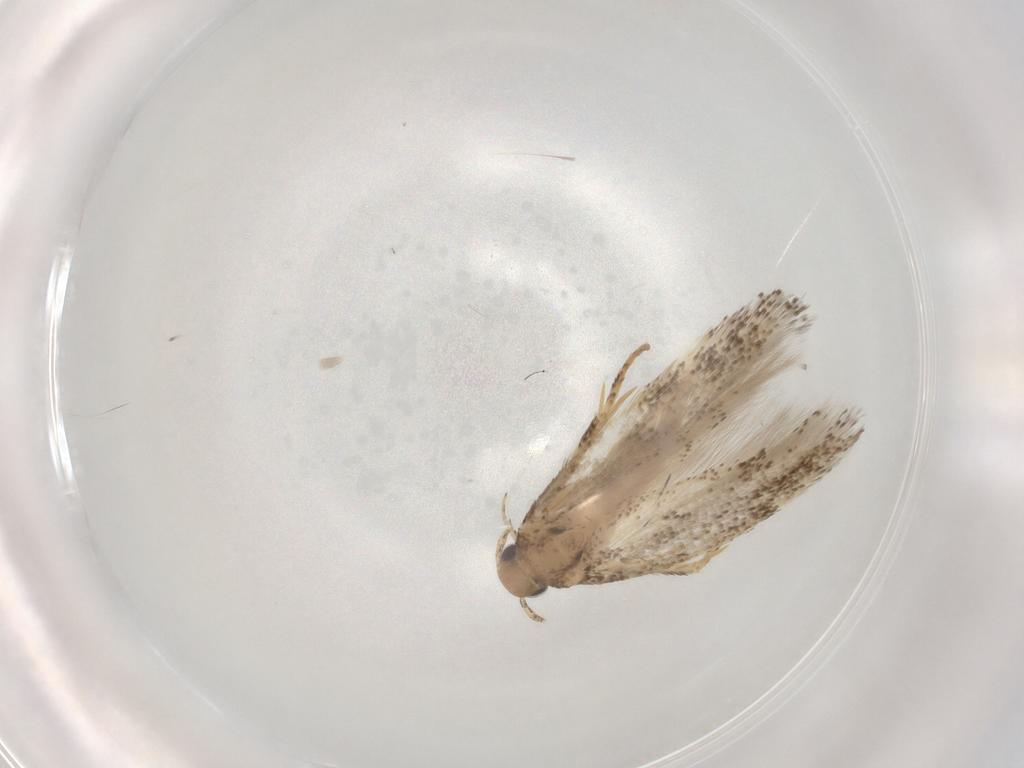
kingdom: Animalia
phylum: Arthropoda
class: Insecta
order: Lepidoptera
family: Gelechiidae
